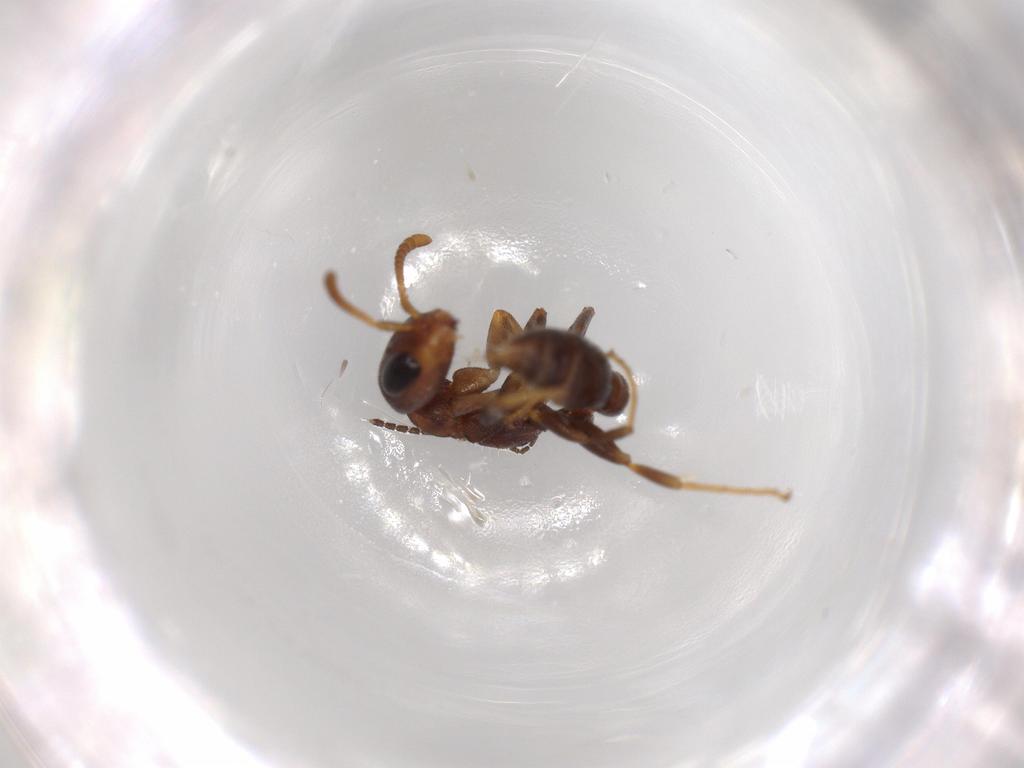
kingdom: Animalia
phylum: Arthropoda
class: Insecta
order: Hymenoptera
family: Formicidae
